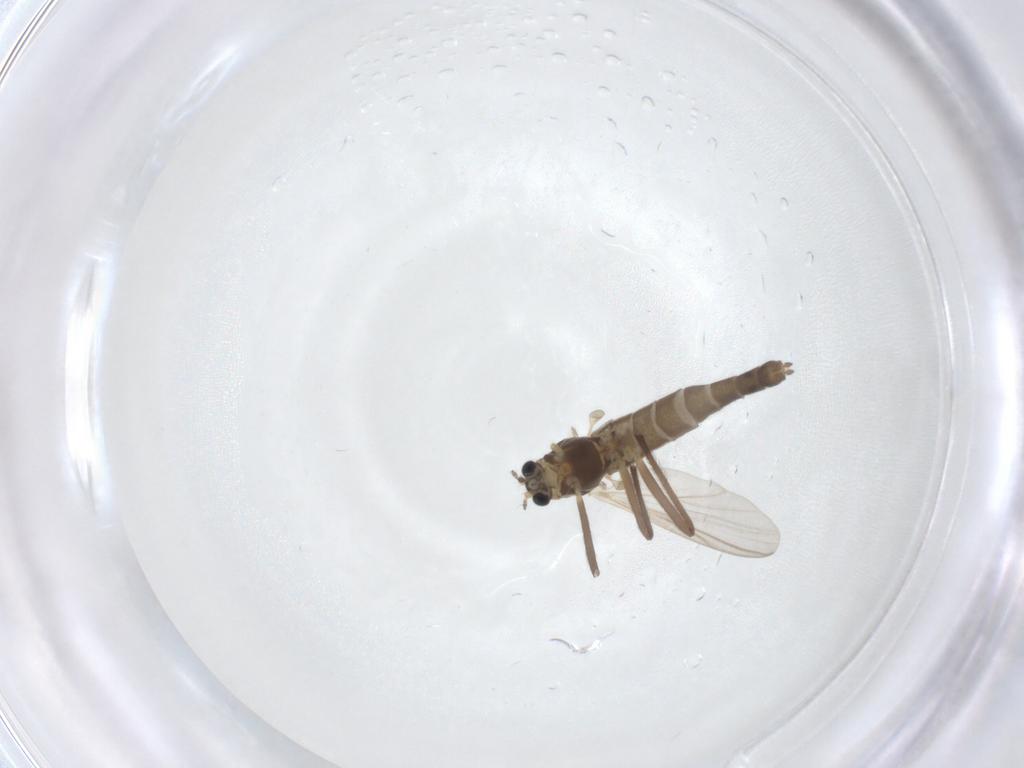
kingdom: Animalia
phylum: Arthropoda
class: Insecta
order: Diptera
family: Chironomidae
